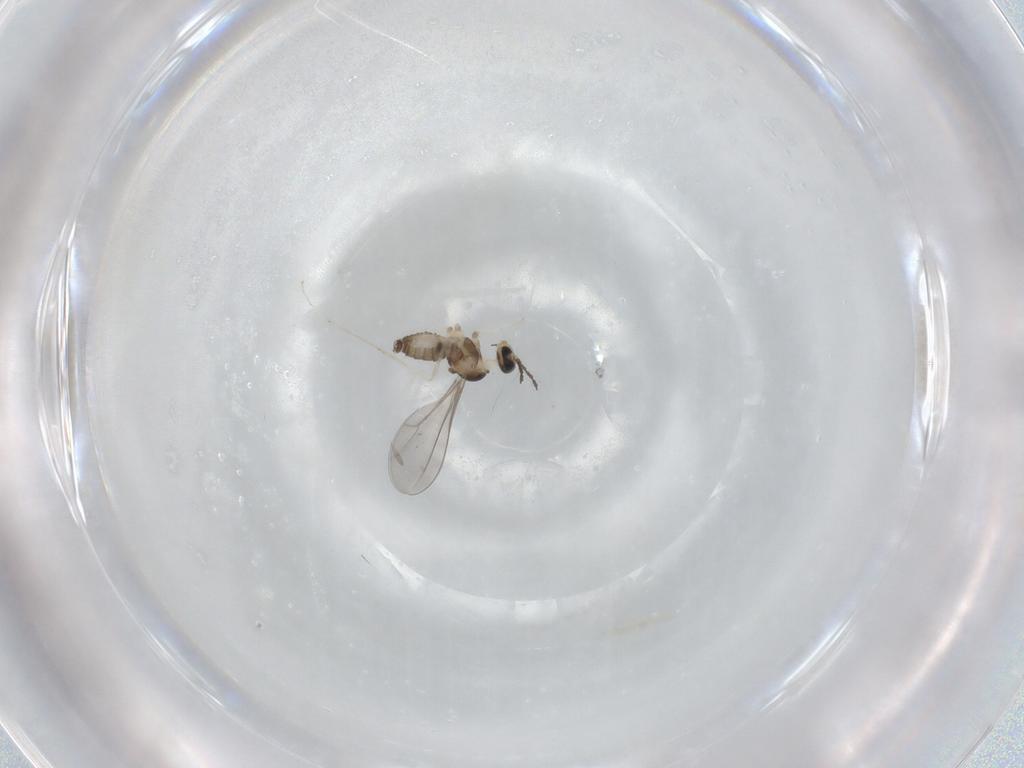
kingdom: Animalia
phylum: Arthropoda
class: Insecta
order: Diptera
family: Cecidomyiidae
